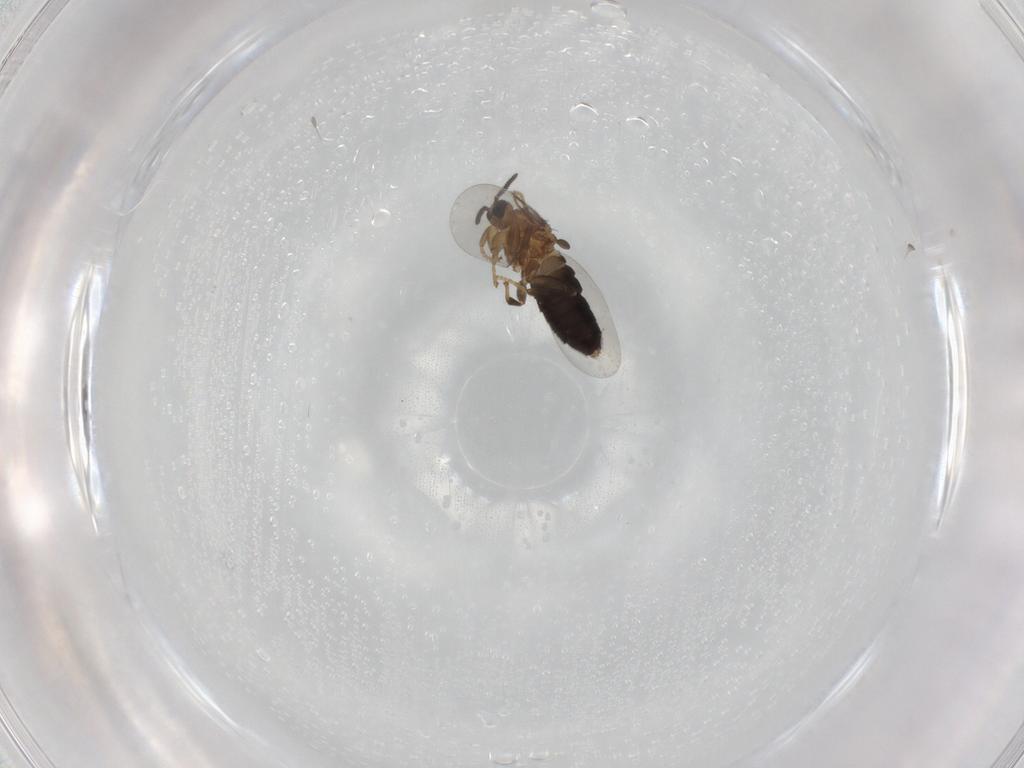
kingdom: Animalia
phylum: Arthropoda
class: Insecta
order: Diptera
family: Scatopsidae
